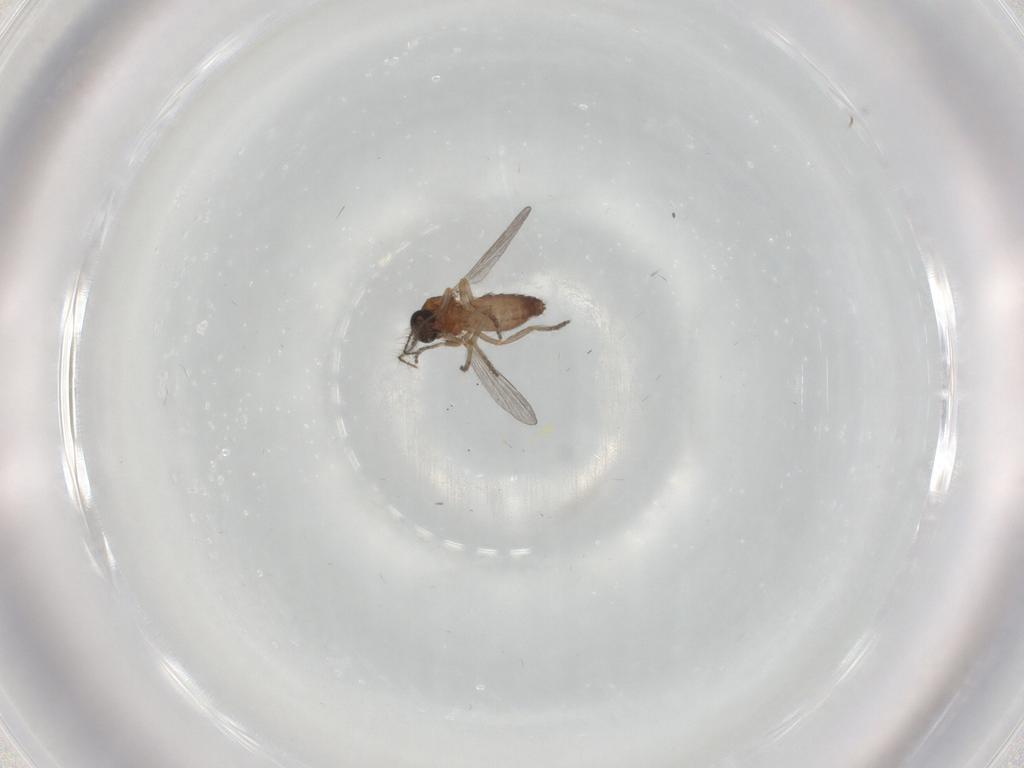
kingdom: Animalia
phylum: Arthropoda
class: Insecta
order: Diptera
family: Ceratopogonidae
